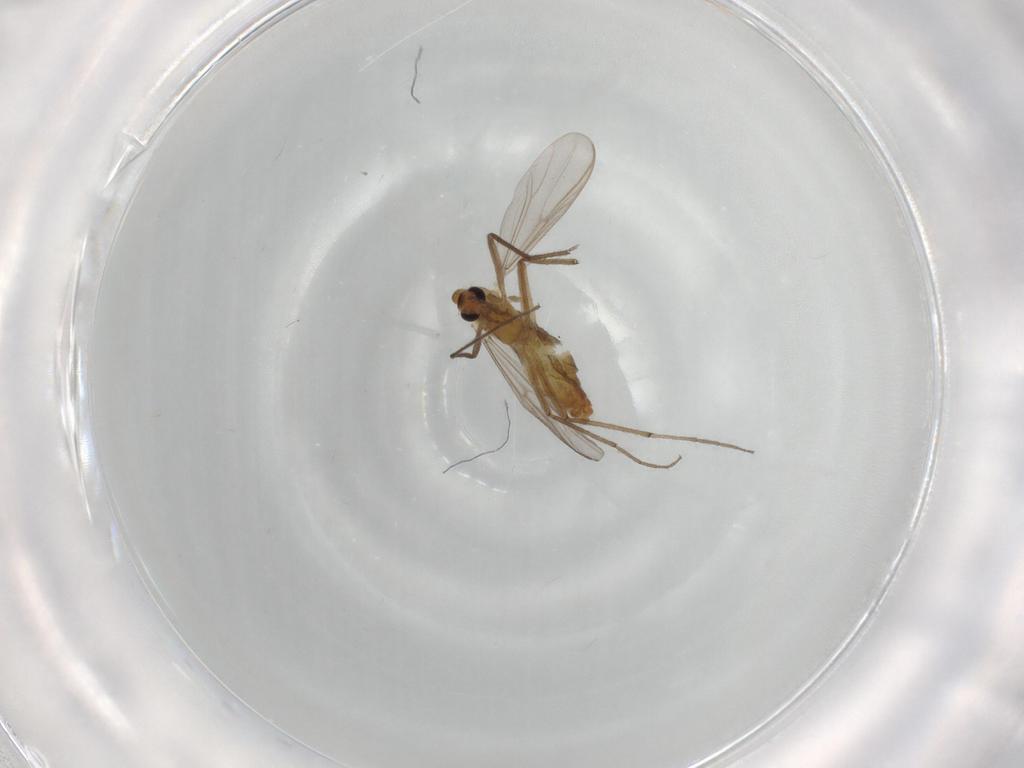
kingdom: Animalia
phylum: Arthropoda
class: Insecta
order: Diptera
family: Chironomidae
